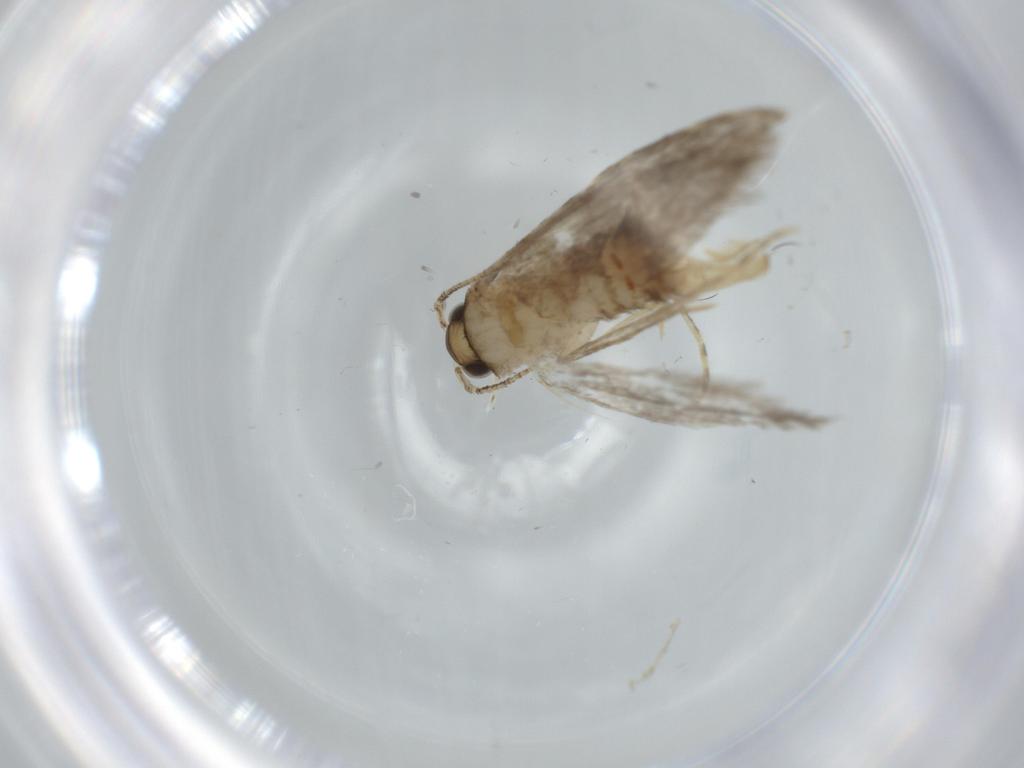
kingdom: Animalia
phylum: Arthropoda
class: Insecta
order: Lepidoptera
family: Tineidae
